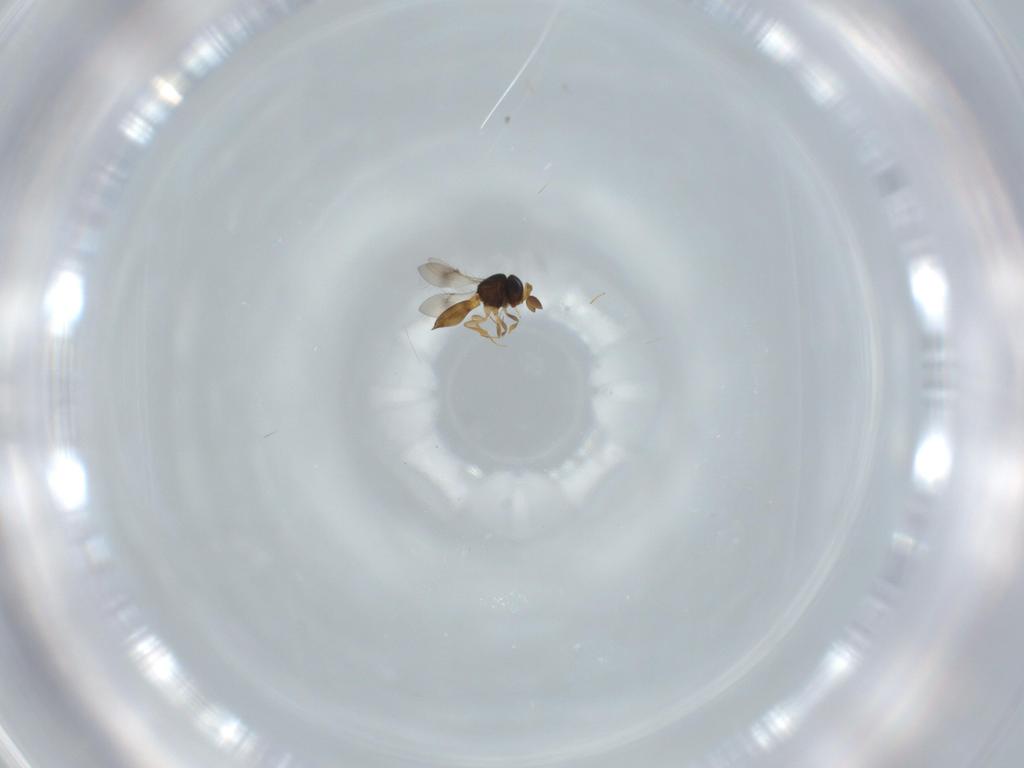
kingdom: Animalia
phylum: Arthropoda
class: Insecta
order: Hymenoptera
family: Scelionidae
